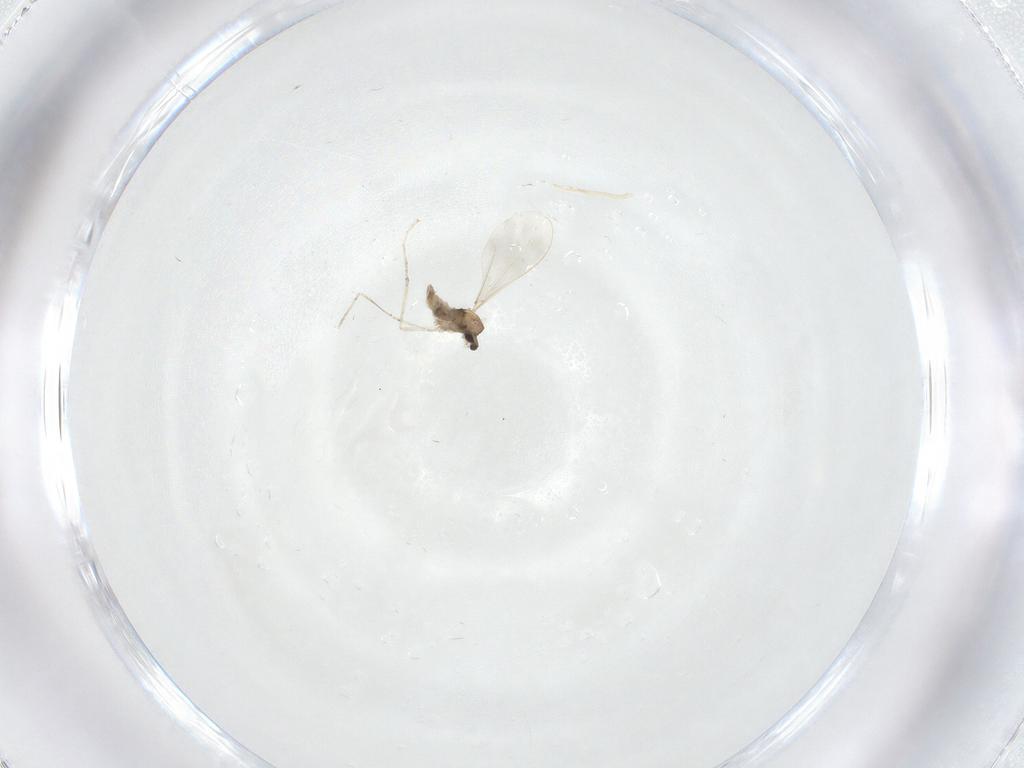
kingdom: Animalia
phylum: Arthropoda
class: Insecta
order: Diptera
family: Cecidomyiidae
